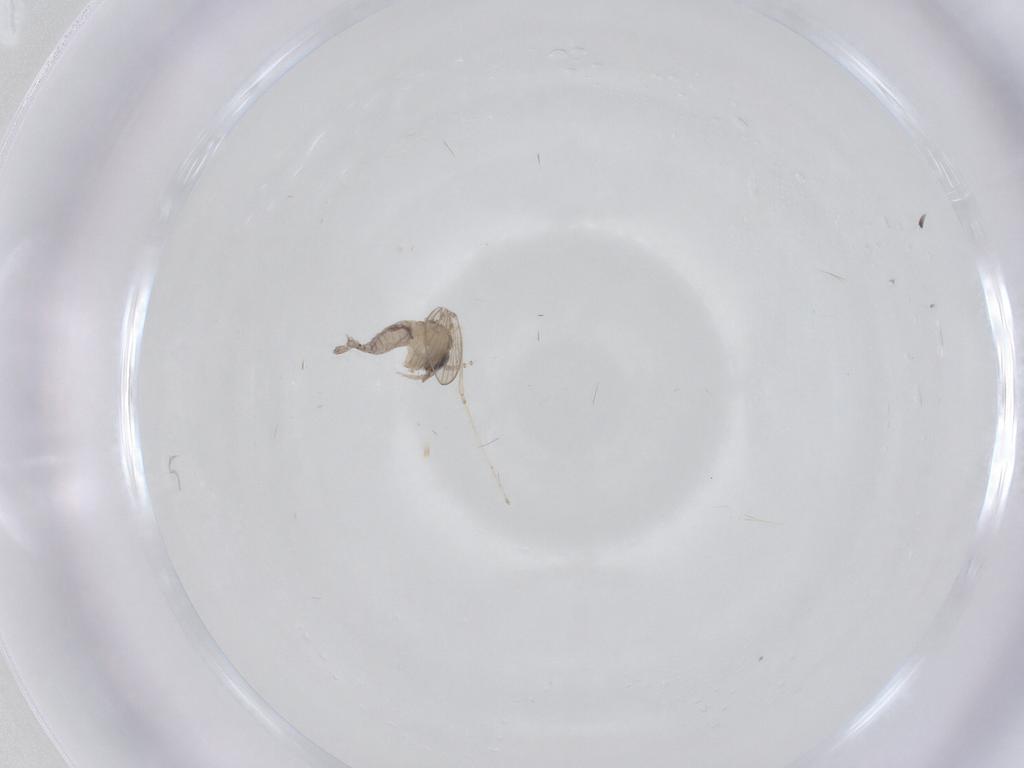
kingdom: Animalia
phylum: Arthropoda
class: Insecta
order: Diptera
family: Psychodidae
